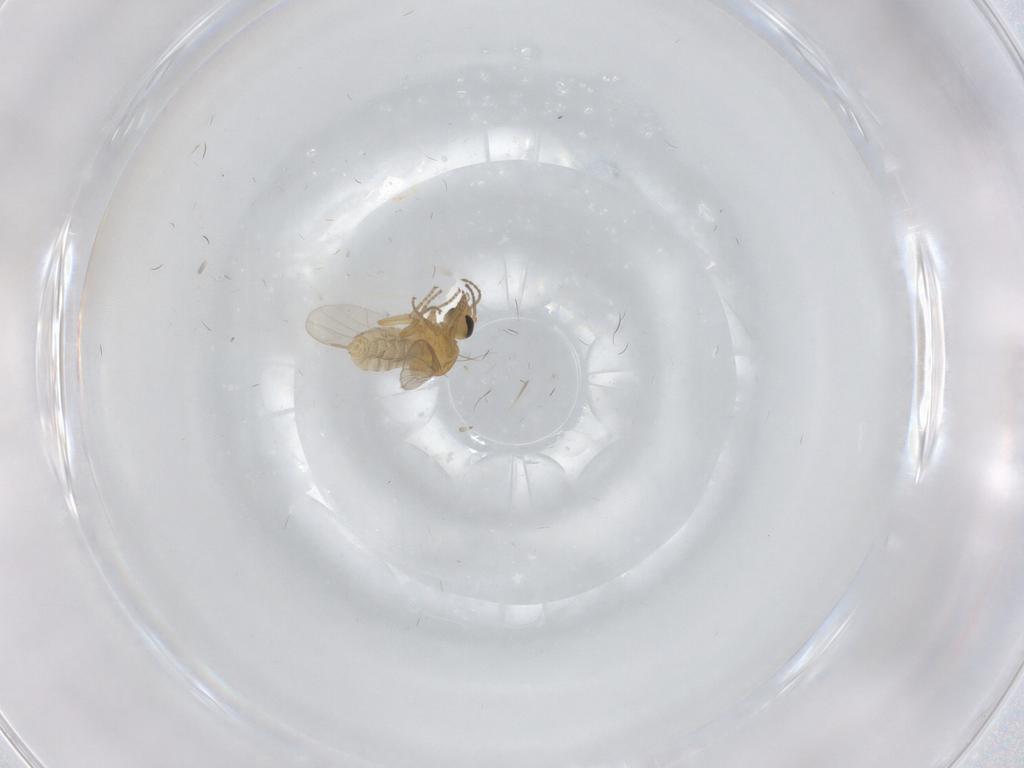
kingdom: Animalia
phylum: Arthropoda
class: Insecta
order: Diptera
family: Ceratopogonidae
